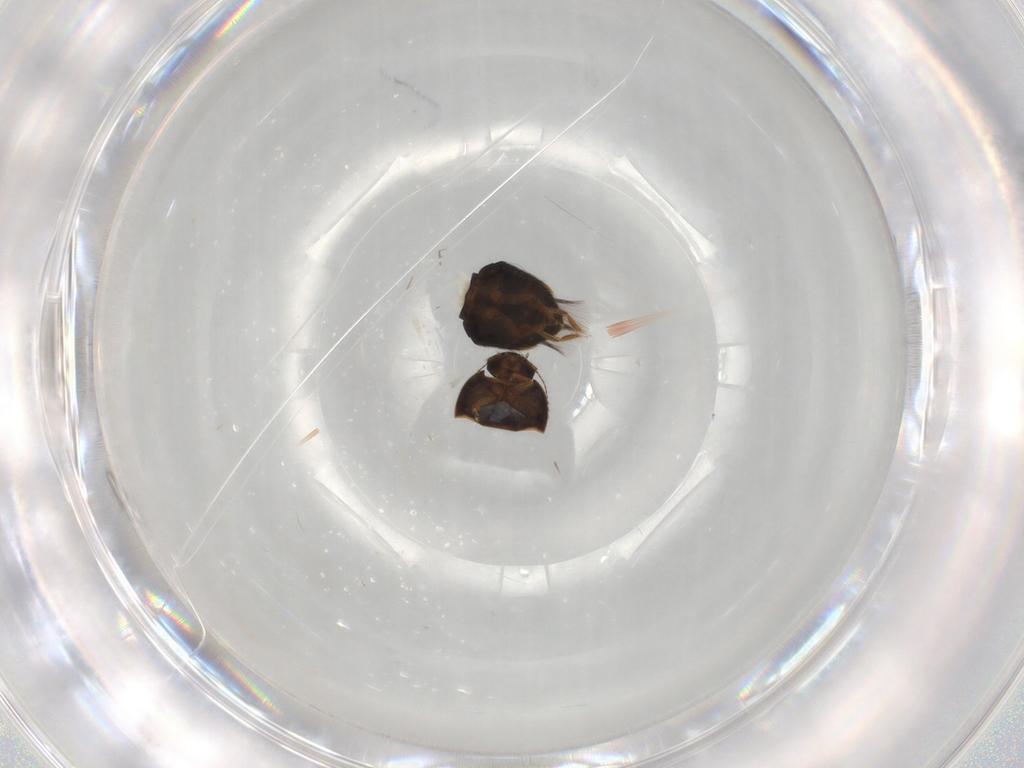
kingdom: Animalia
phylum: Arthropoda
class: Insecta
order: Coleoptera
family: Ptiliidae
